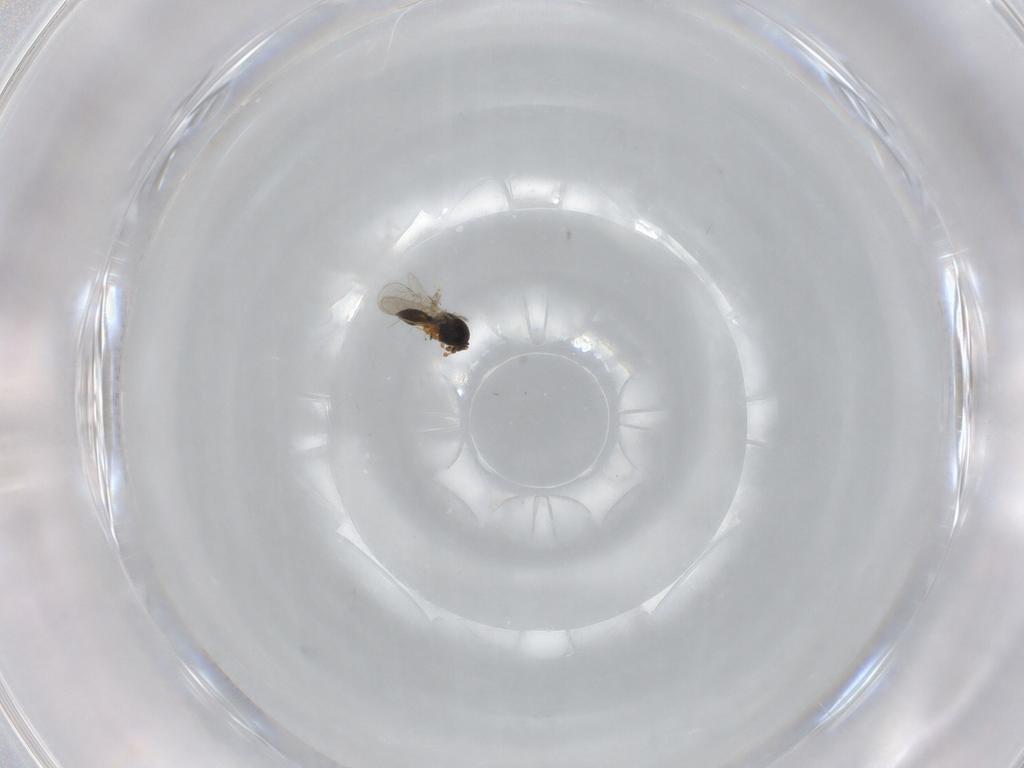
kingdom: Animalia
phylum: Arthropoda
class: Insecta
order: Hymenoptera
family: Platygastridae
